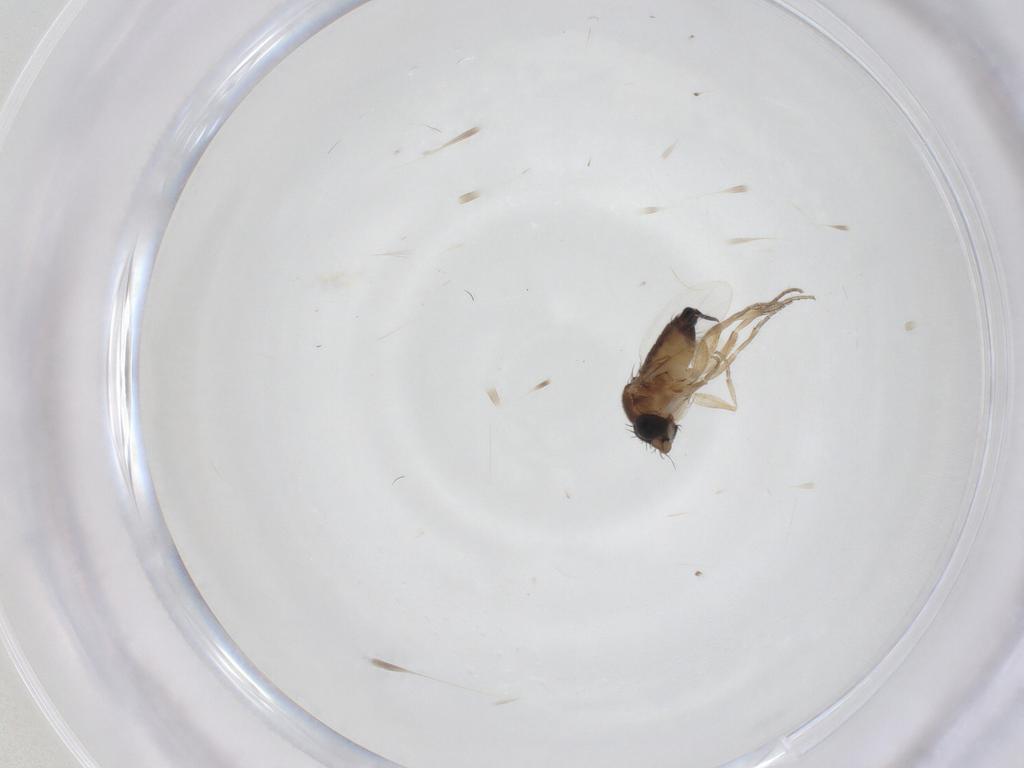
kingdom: Animalia
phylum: Arthropoda
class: Insecta
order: Diptera
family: Phoridae
